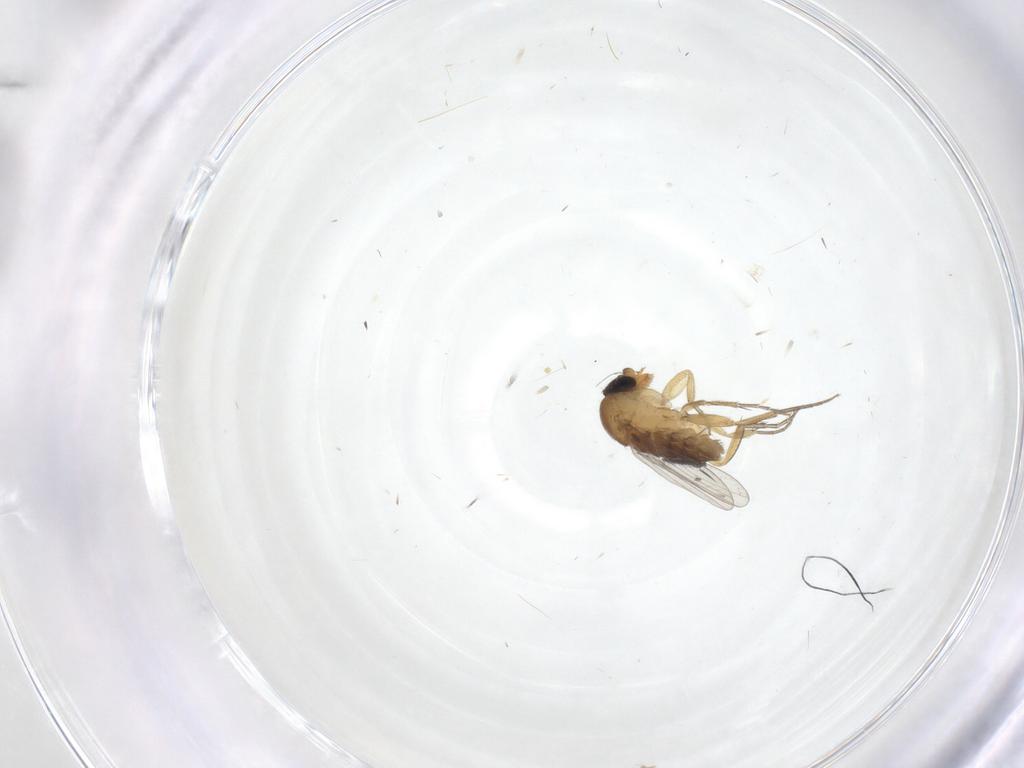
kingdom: Animalia
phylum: Arthropoda
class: Insecta
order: Diptera
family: Sciaridae
